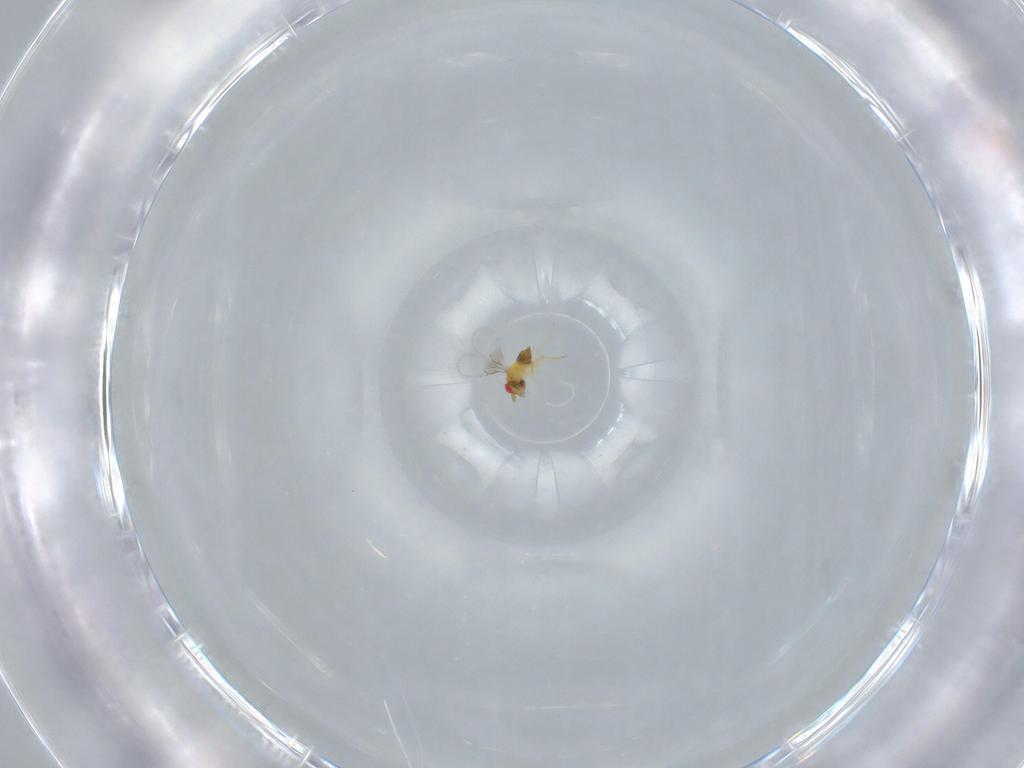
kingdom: Animalia
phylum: Arthropoda
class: Insecta
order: Hymenoptera
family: Trichogrammatidae
